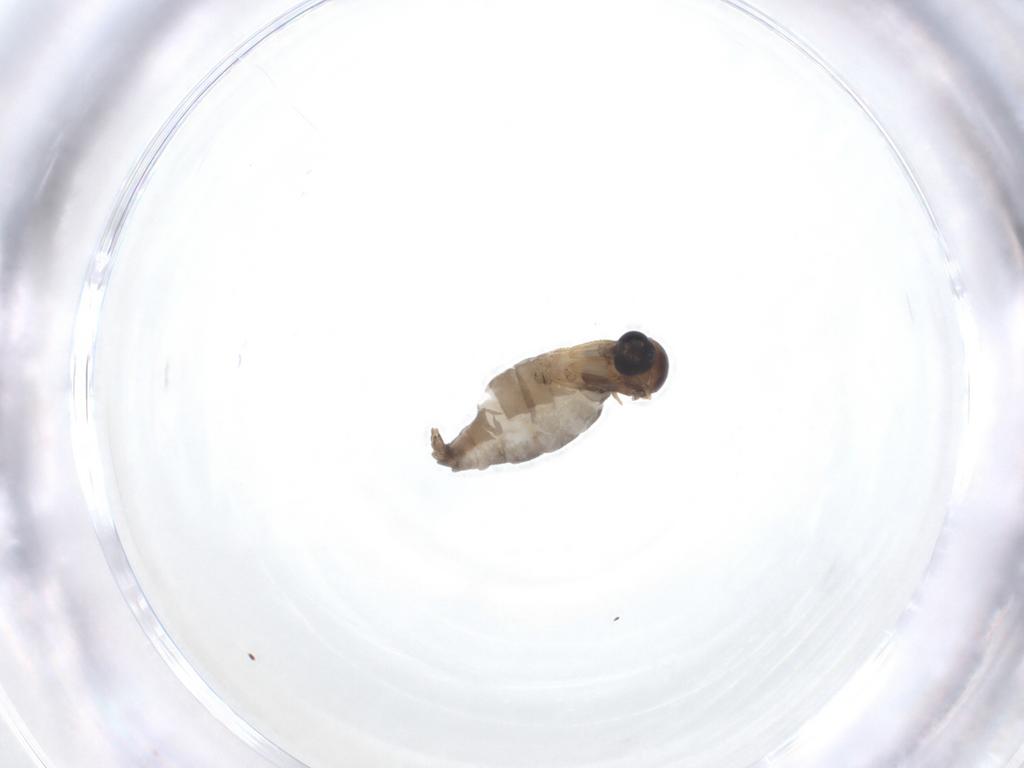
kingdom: Animalia
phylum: Arthropoda
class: Insecta
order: Diptera
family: Sciaridae
